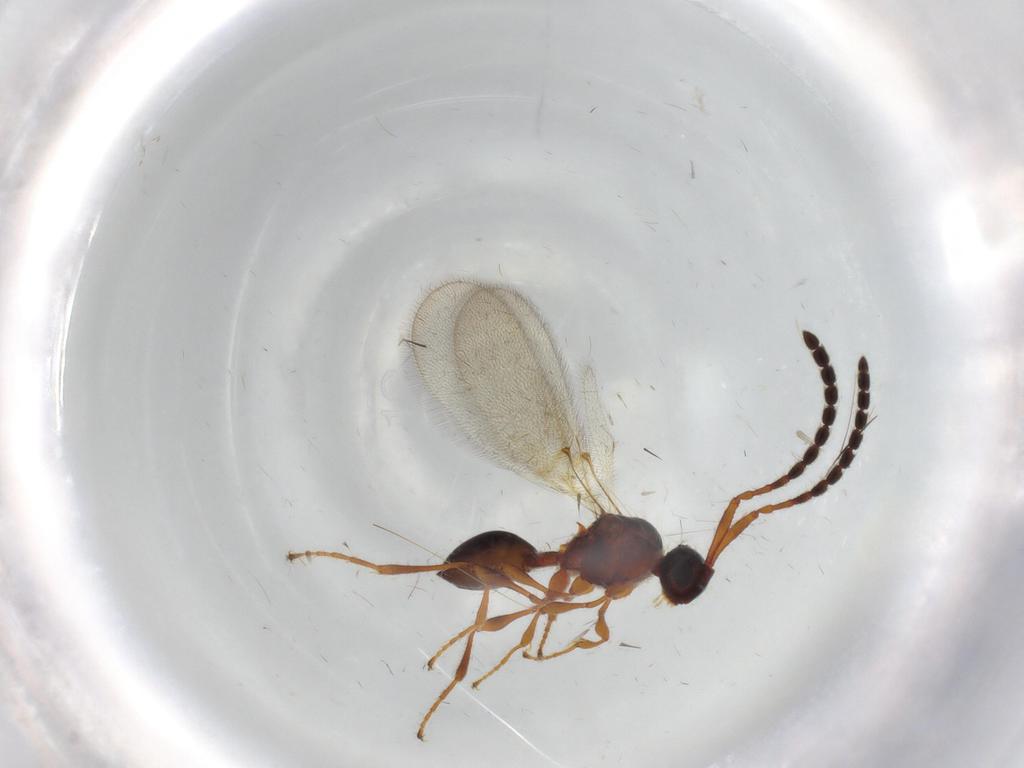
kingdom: Animalia
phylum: Arthropoda
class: Insecta
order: Hymenoptera
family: Diapriidae
